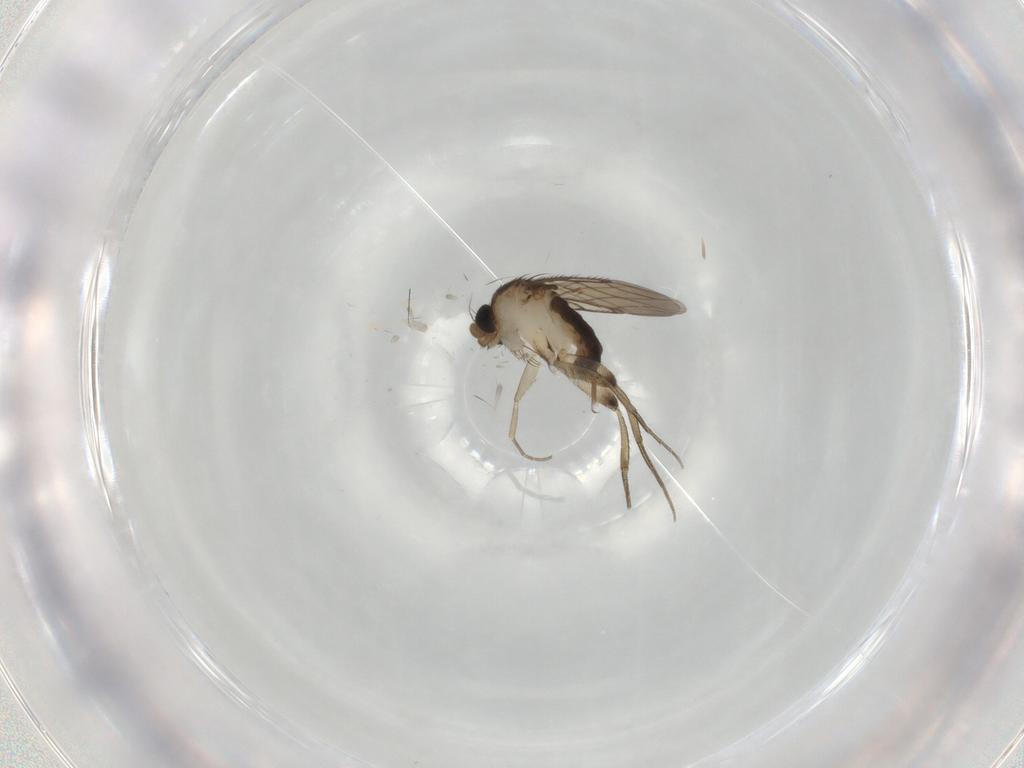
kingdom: Animalia
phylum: Arthropoda
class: Insecta
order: Diptera
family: Phoridae
